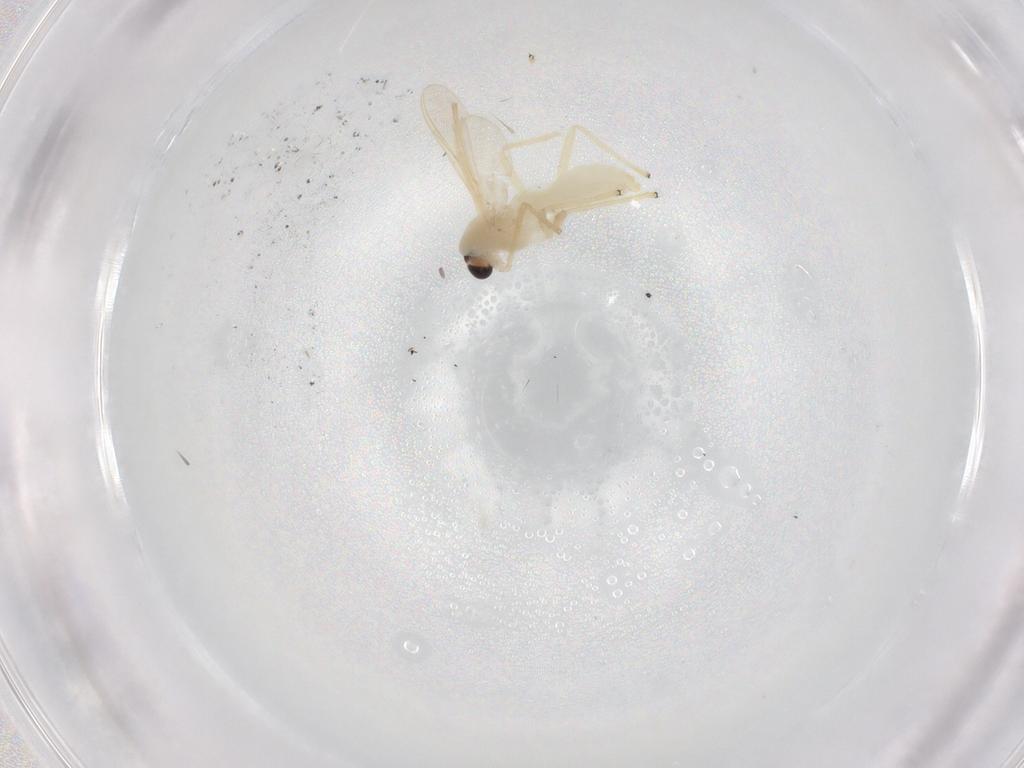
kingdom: Animalia
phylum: Arthropoda
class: Insecta
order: Diptera
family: Chironomidae
